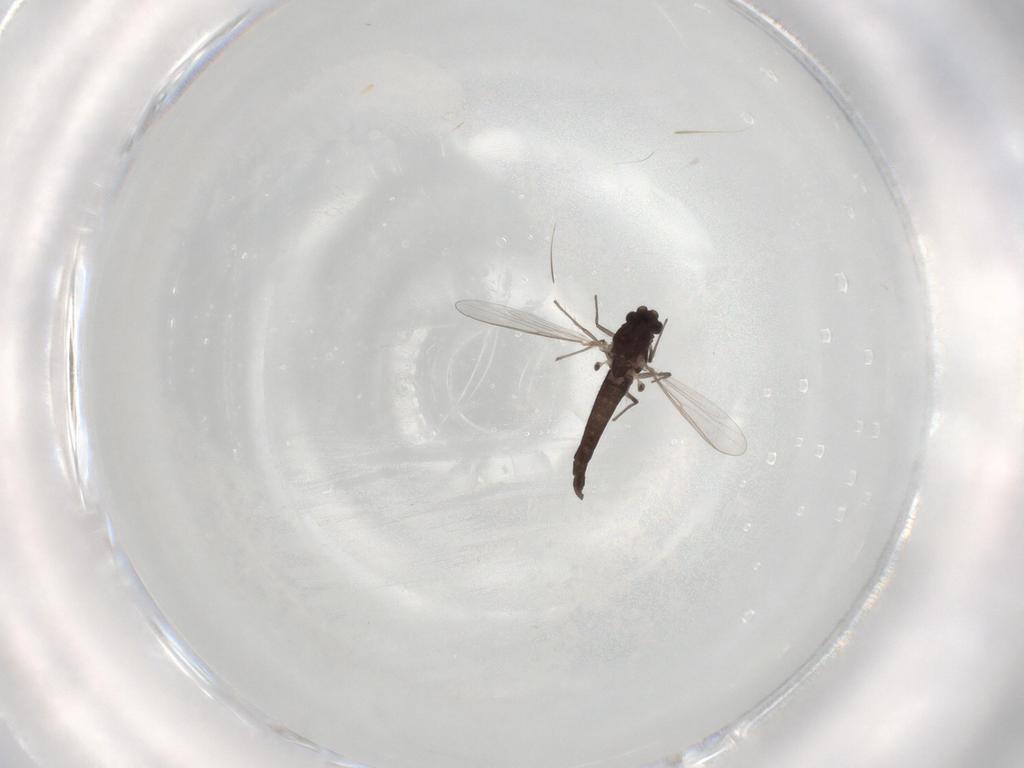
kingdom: Animalia
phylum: Arthropoda
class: Insecta
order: Diptera
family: Chironomidae
